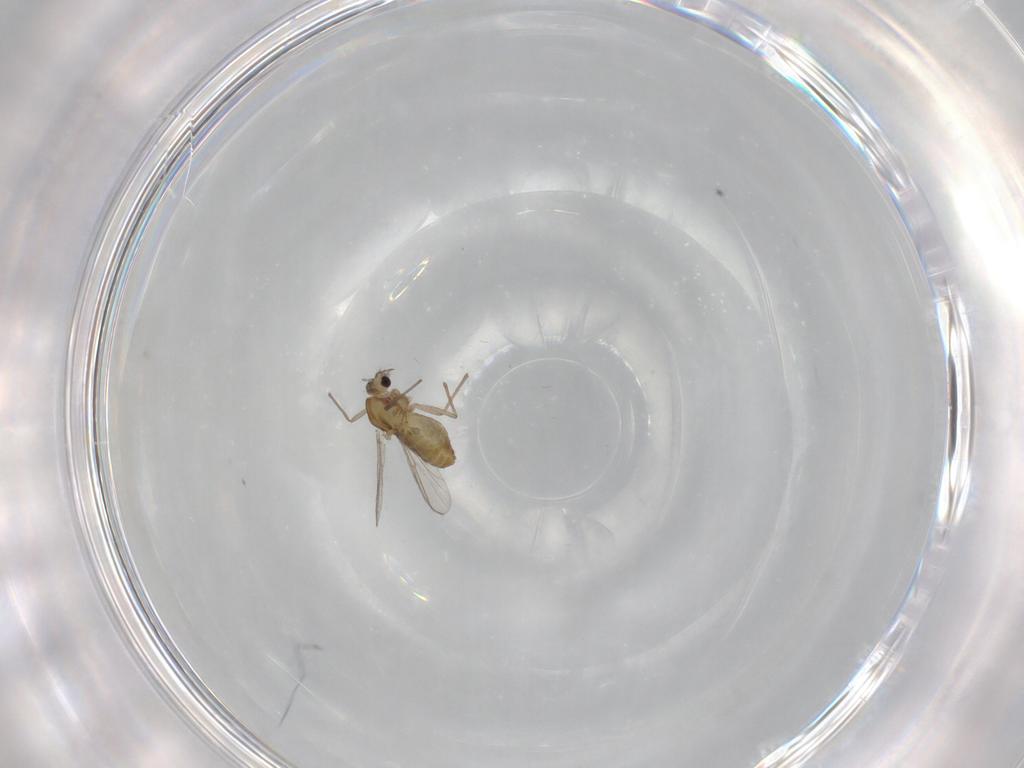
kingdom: Animalia
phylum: Arthropoda
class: Insecta
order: Diptera
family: Chironomidae
